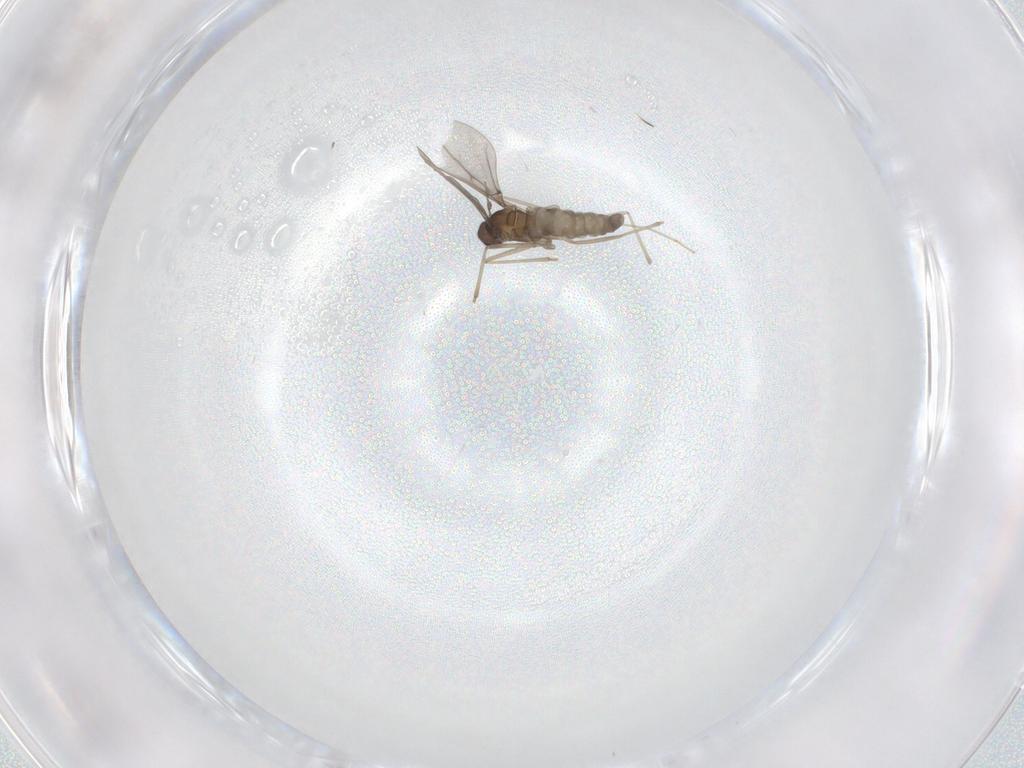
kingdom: Animalia
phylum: Arthropoda
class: Insecta
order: Diptera
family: Cecidomyiidae
